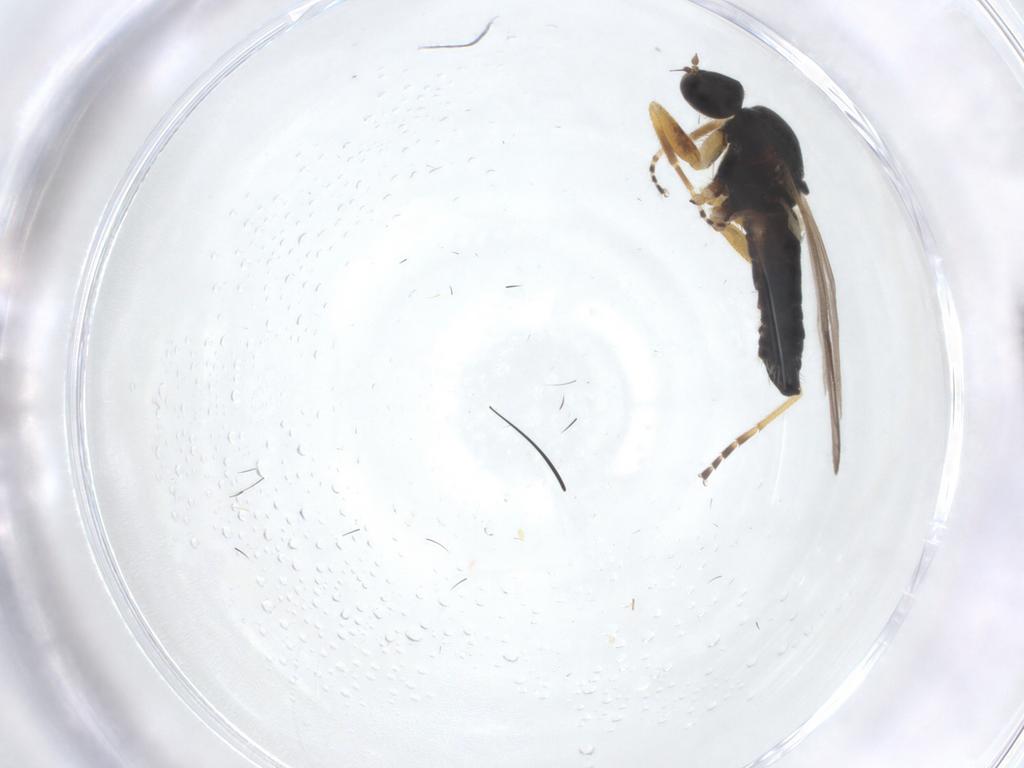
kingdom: Animalia
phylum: Arthropoda
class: Insecta
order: Diptera
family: Hybotidae
